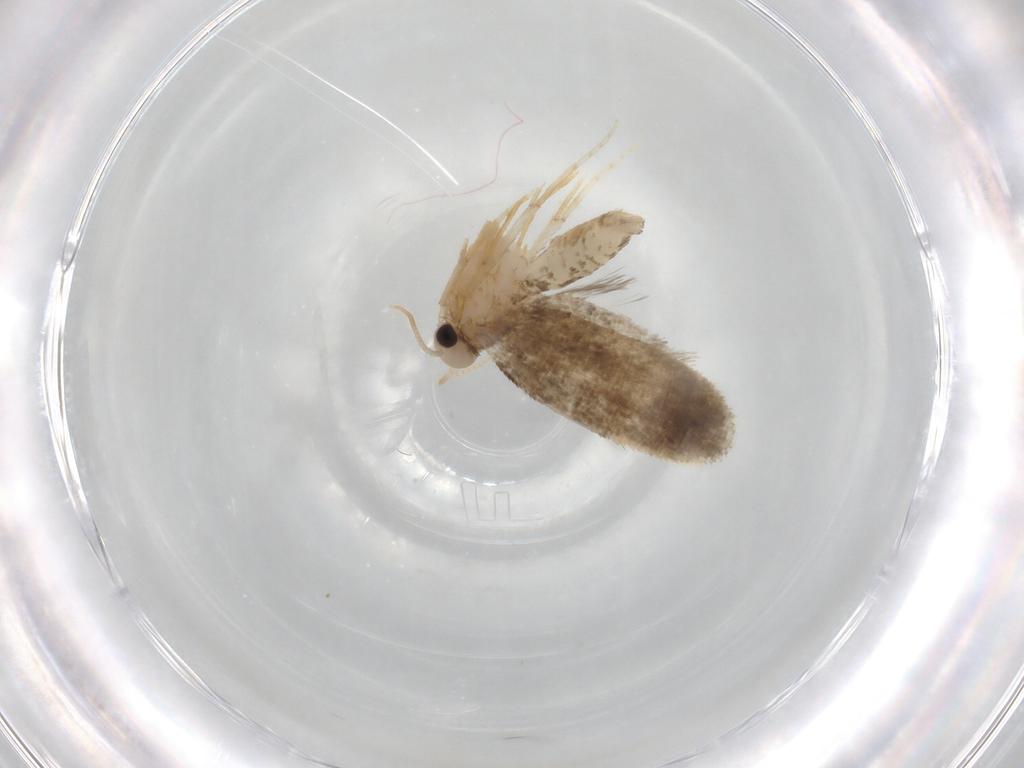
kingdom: Animalia
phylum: Arthropoda
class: Insecta
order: Lepidoptera
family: Psychidae
